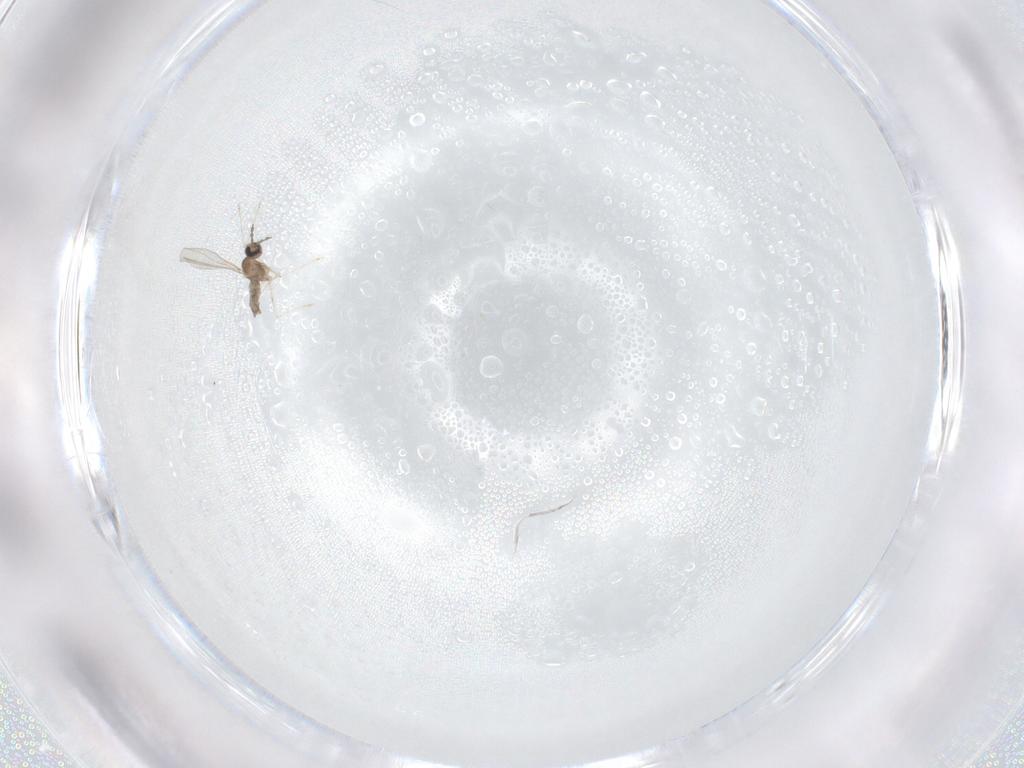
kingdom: Animalia
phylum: Arthropoda
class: Insecta
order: Diptera
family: Cecidomyiidae
